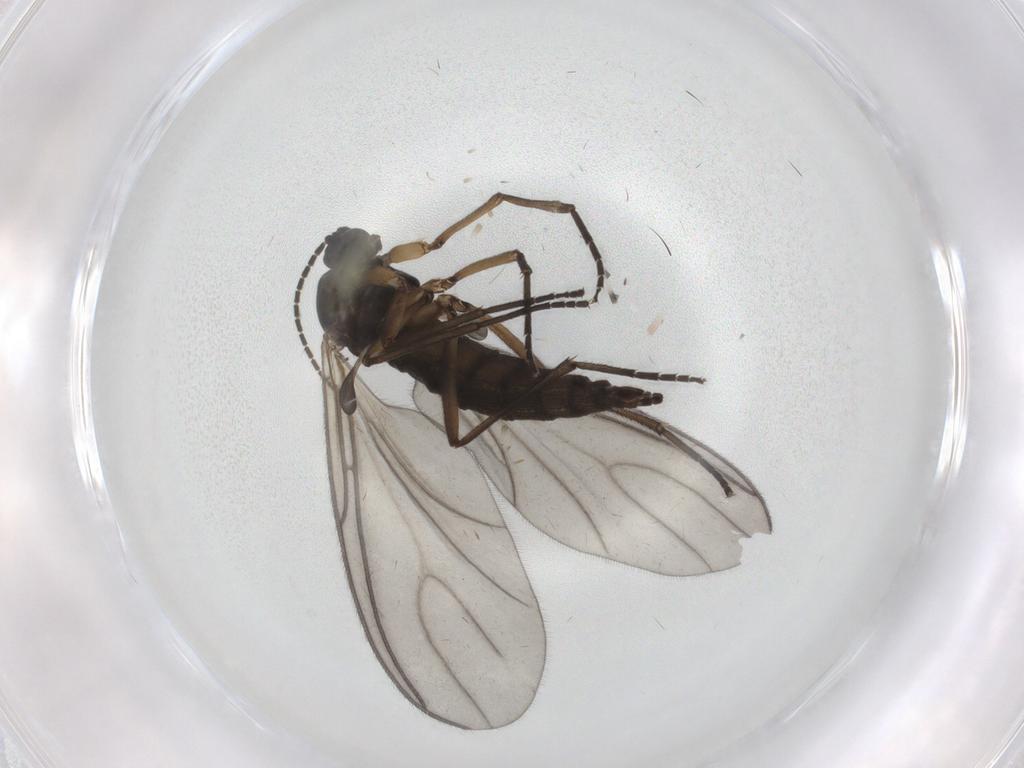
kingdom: Animalia
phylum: Arthropoda
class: Insecta
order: Diptera
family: Sciaridae
